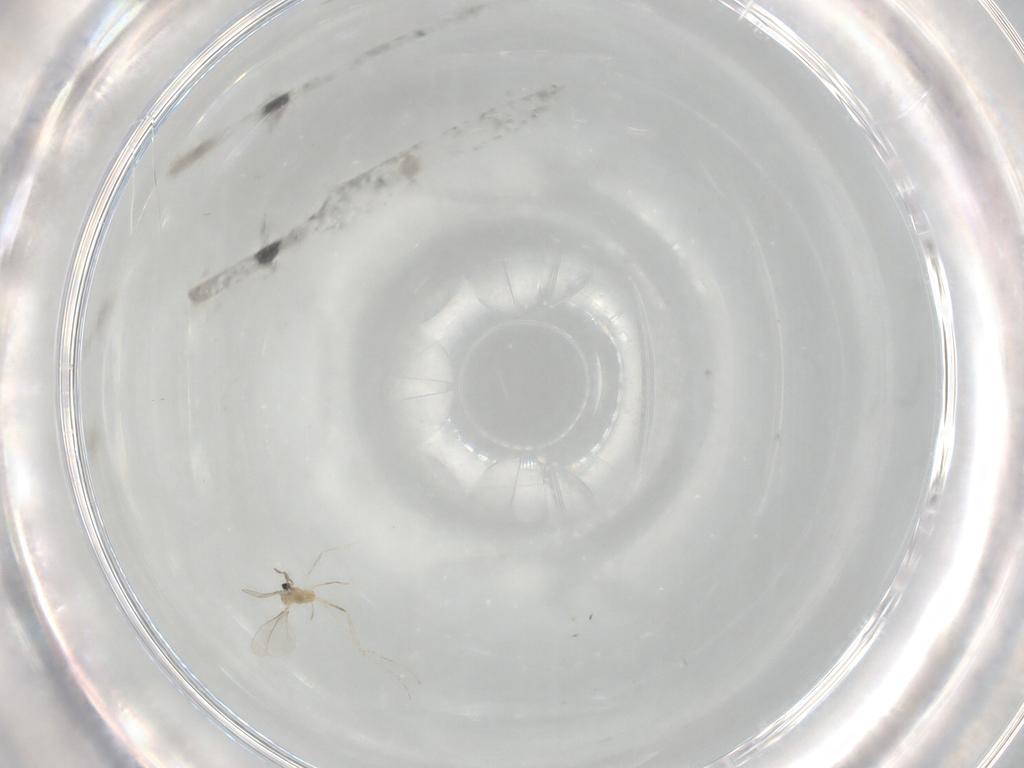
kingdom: Animalia
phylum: Arthropoda
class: Insecta
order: Diptera
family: Cecidomyiidae
